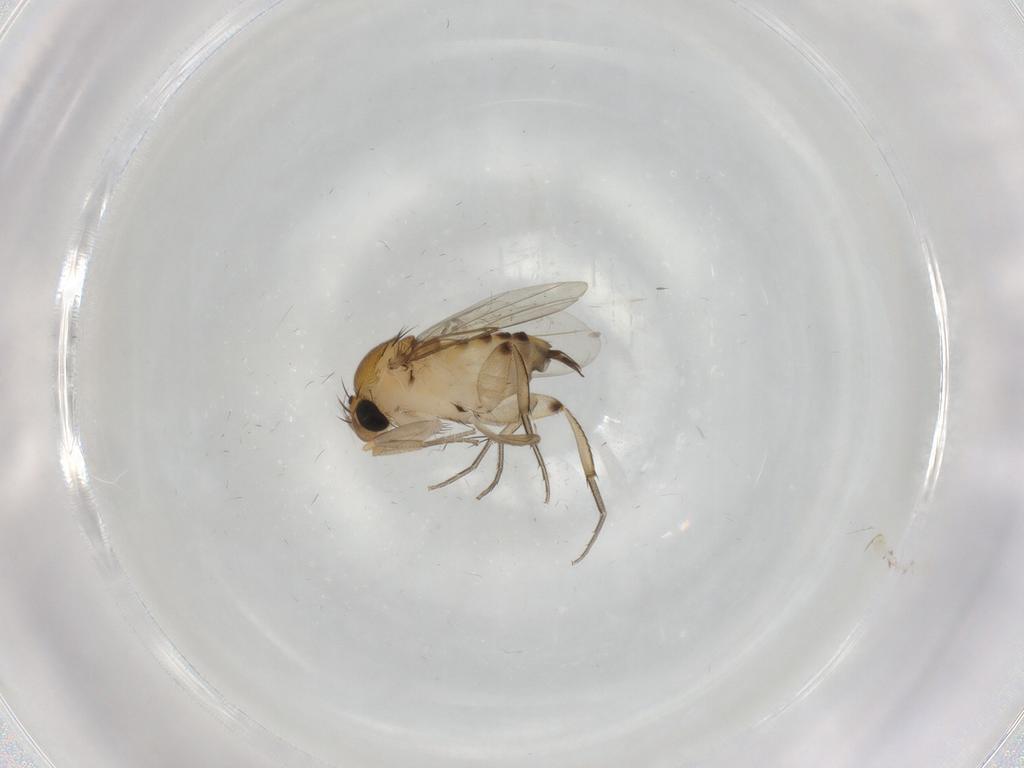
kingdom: Animalia
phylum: Arthropoda
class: Insecta
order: Diptera
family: Phoridae
